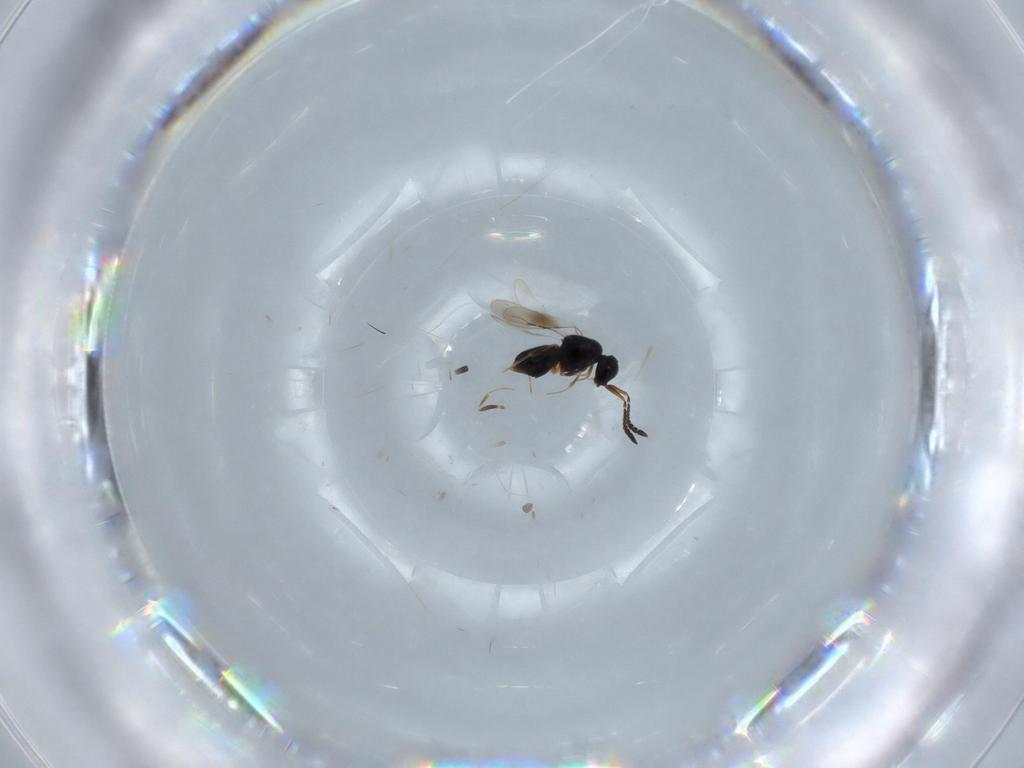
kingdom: Animalia
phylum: Arthropoda
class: Insecta
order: Hymenoptera
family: Ceraphronidae
